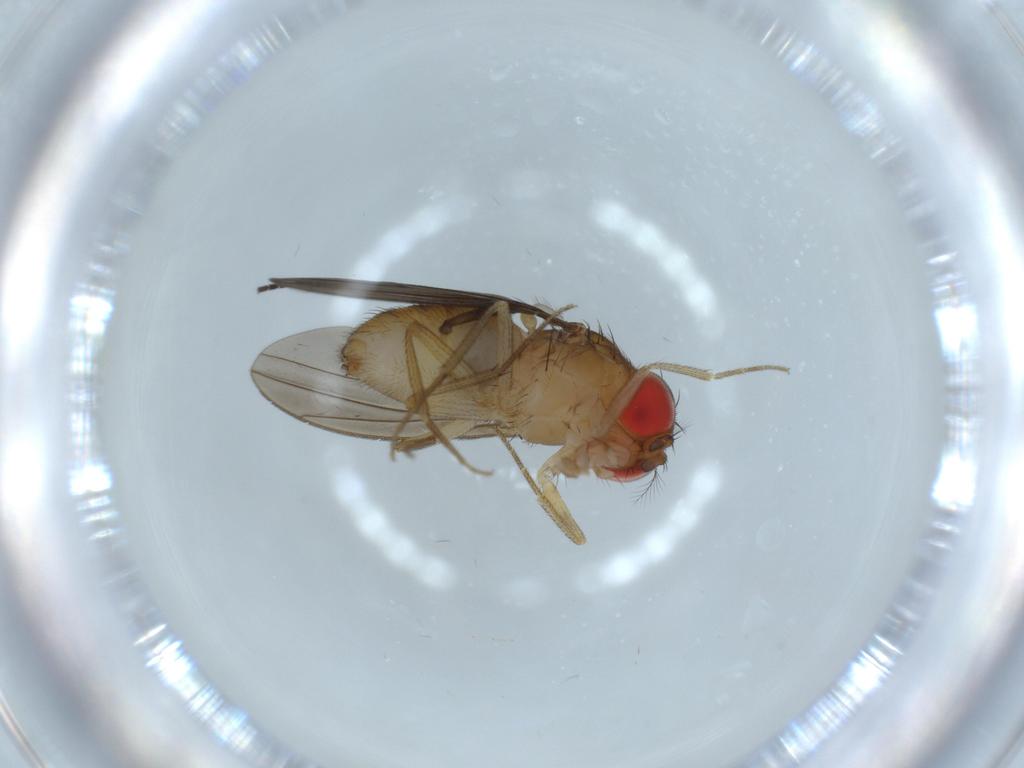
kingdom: Animalia
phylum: Arthropoda
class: Insecta
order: Diptera
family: Drosophilidae
